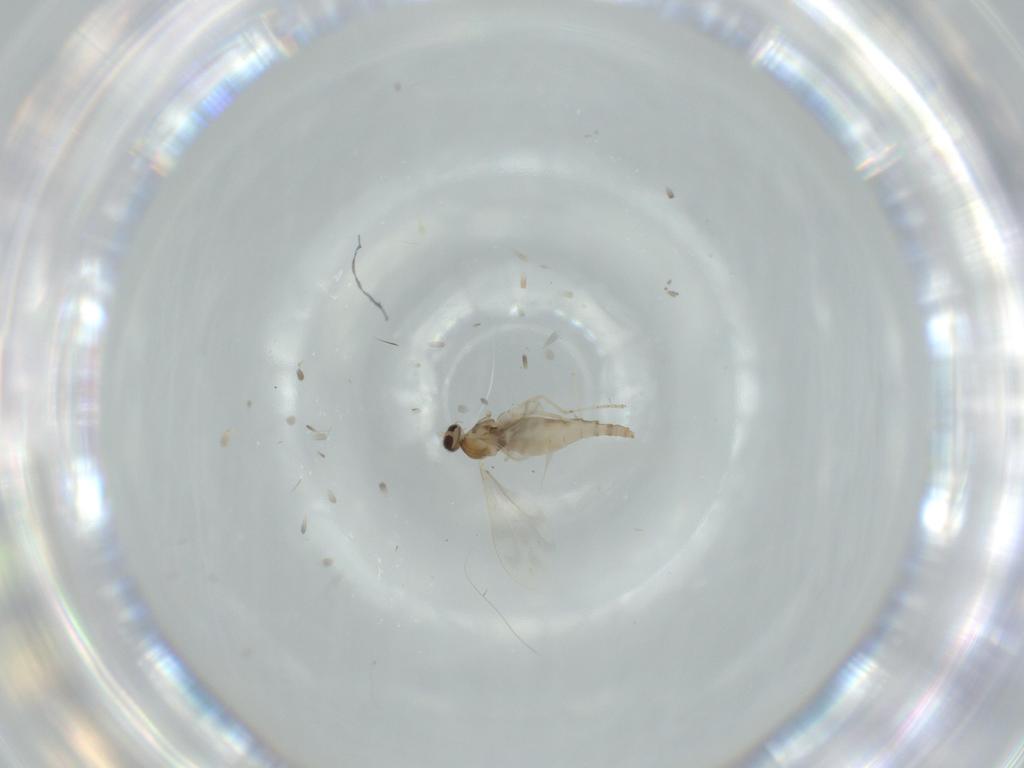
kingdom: Animalia
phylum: Arthropoda
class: Insecta
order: Diptera
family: Cecidomyiidae
